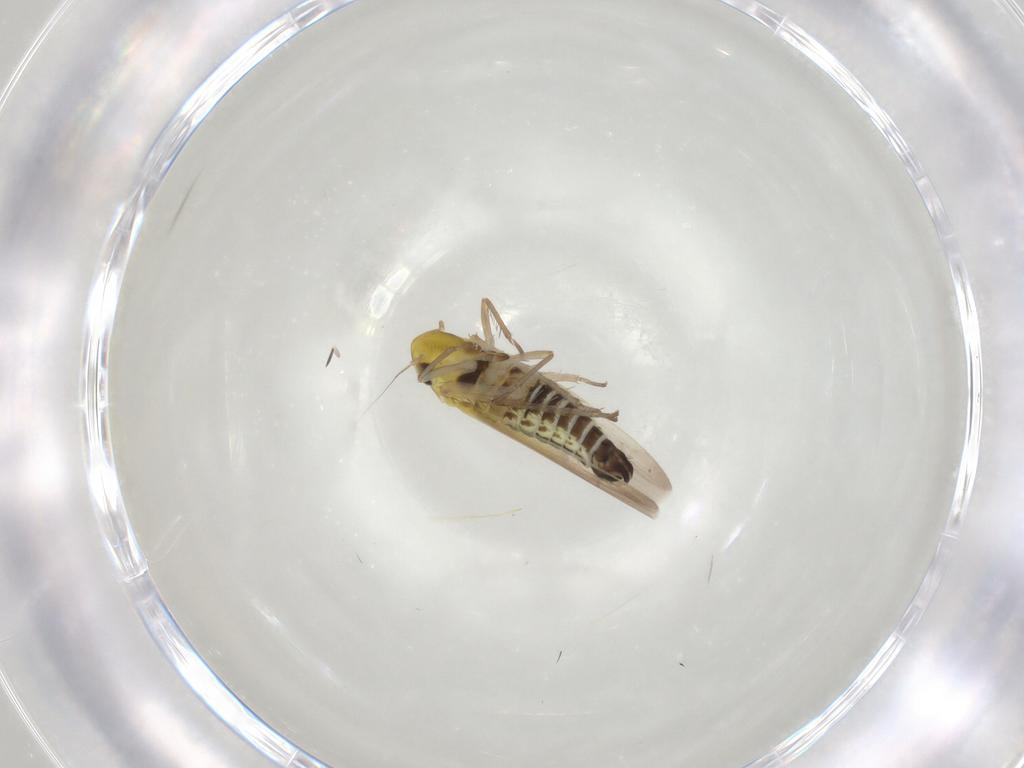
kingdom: Animalia
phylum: Arthropoda
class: Insecta
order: Hemiptera
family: Cicadellidae
